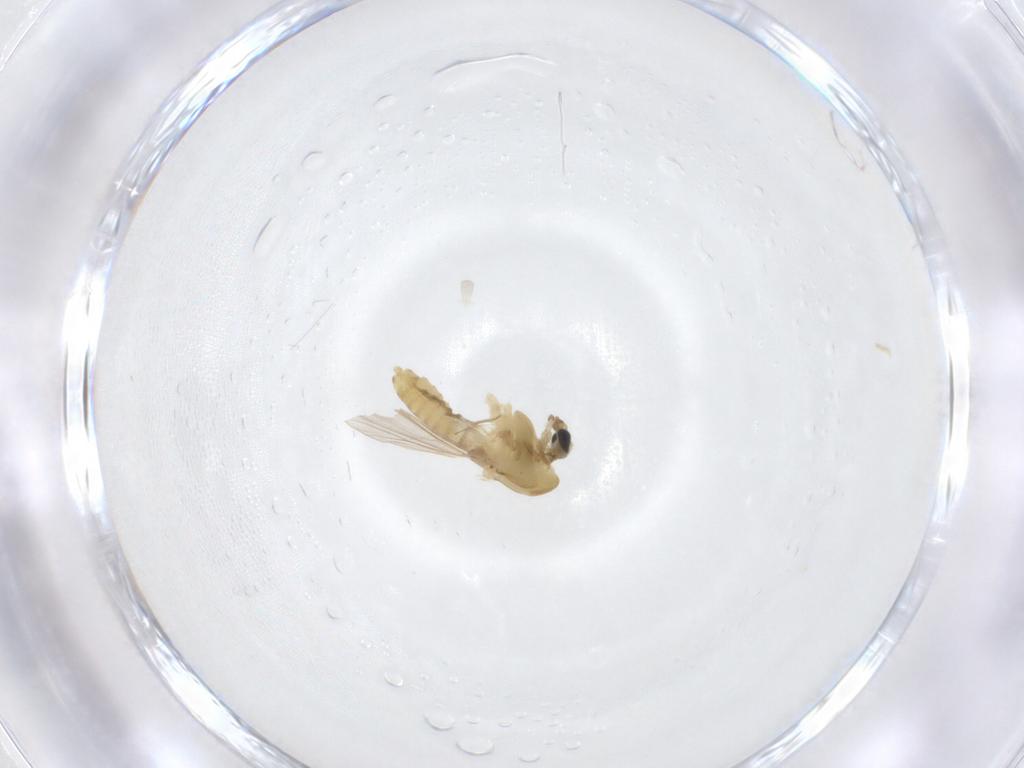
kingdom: Animalia
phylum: Arthropoda
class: Insecta
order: Diptera
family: Chironomidae
